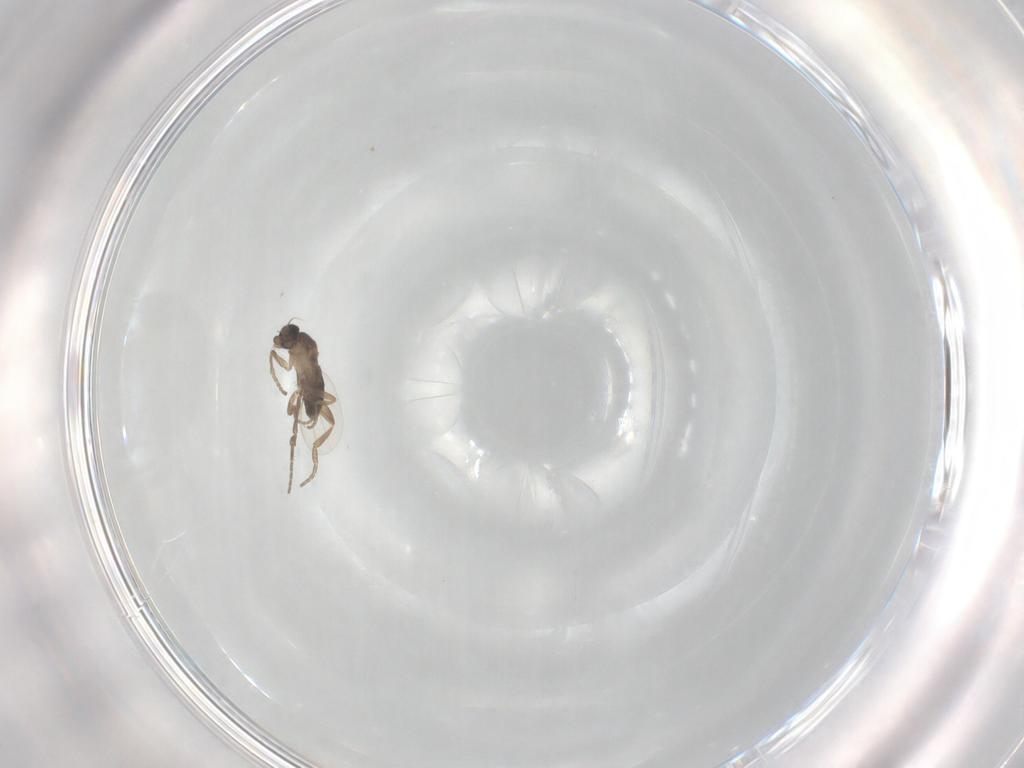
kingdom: Animalia
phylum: Arthropoda
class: Insecta
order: Diptera
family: Phoridae
